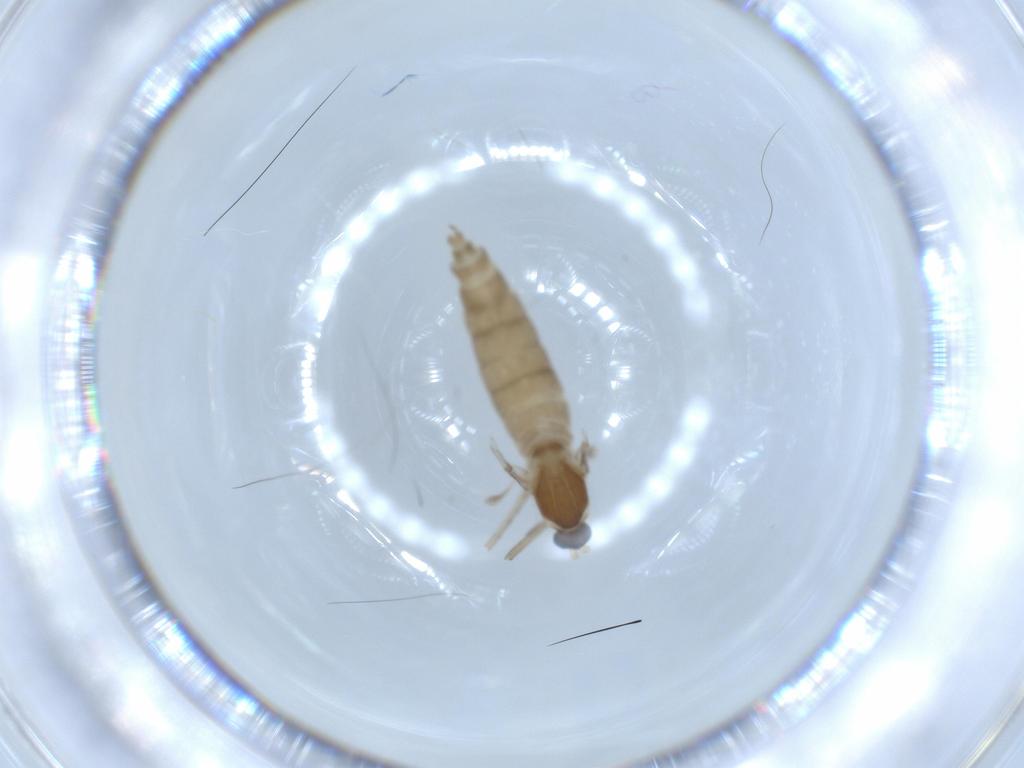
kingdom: Animalia
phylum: Arthropoda
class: Insecta
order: Diptera
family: Cecidomyiidae
